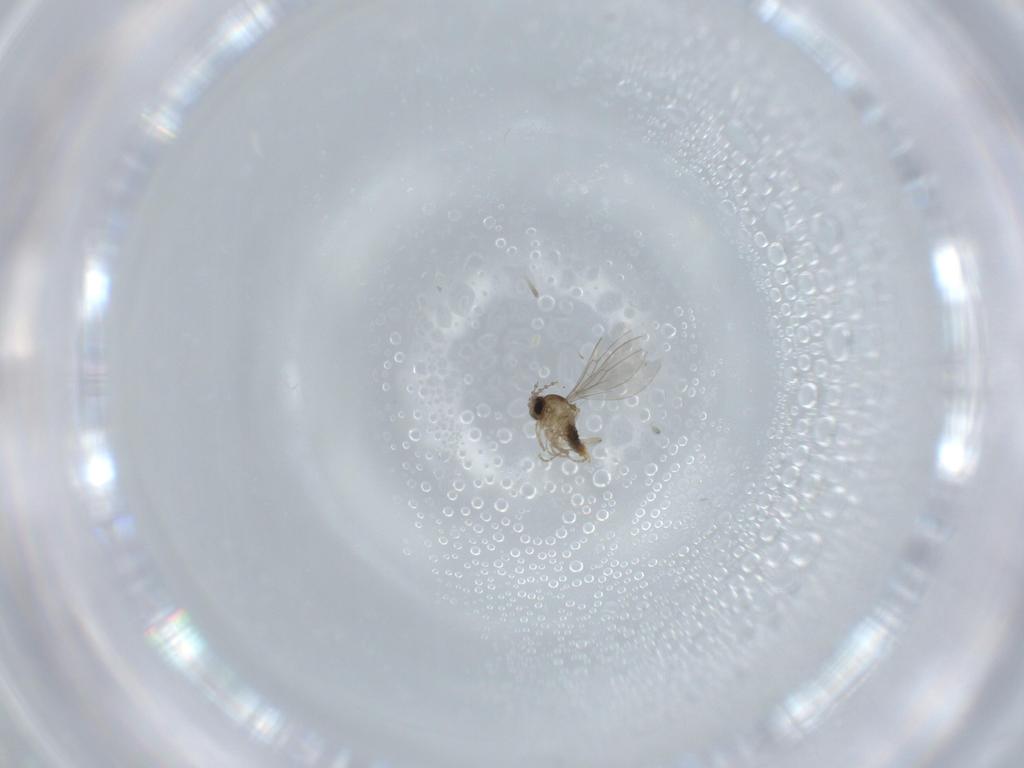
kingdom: Animalia
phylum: Arthropoda
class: Insecta
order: Diptera
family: Cecidomyiidae
